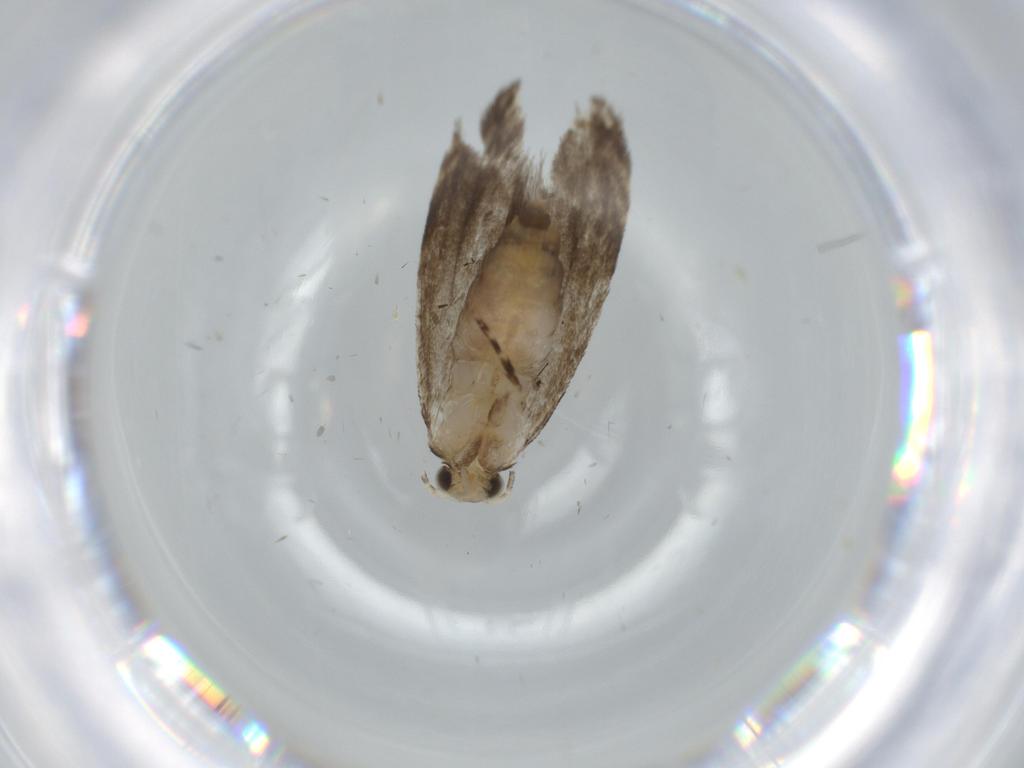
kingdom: Animalia
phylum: Arthropoda
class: Insecta
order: Lepidoptera
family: Tineidae
